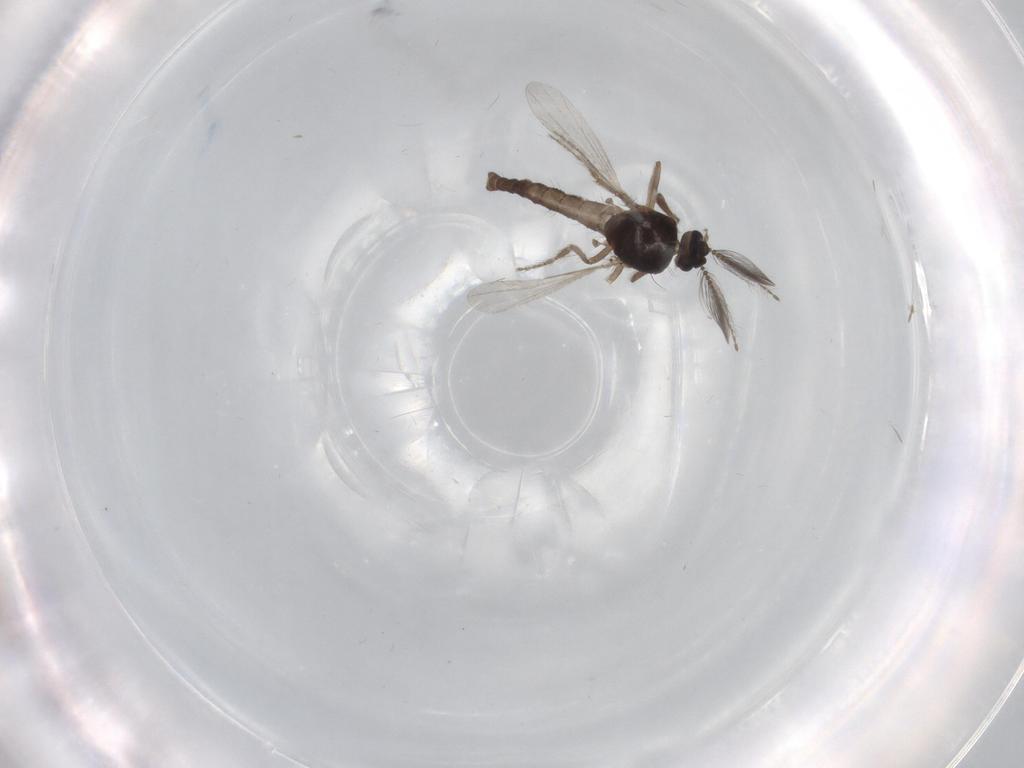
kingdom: Animalia
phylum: Arthropoda
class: Insecta
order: Diptera
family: Ceratopogonidae
